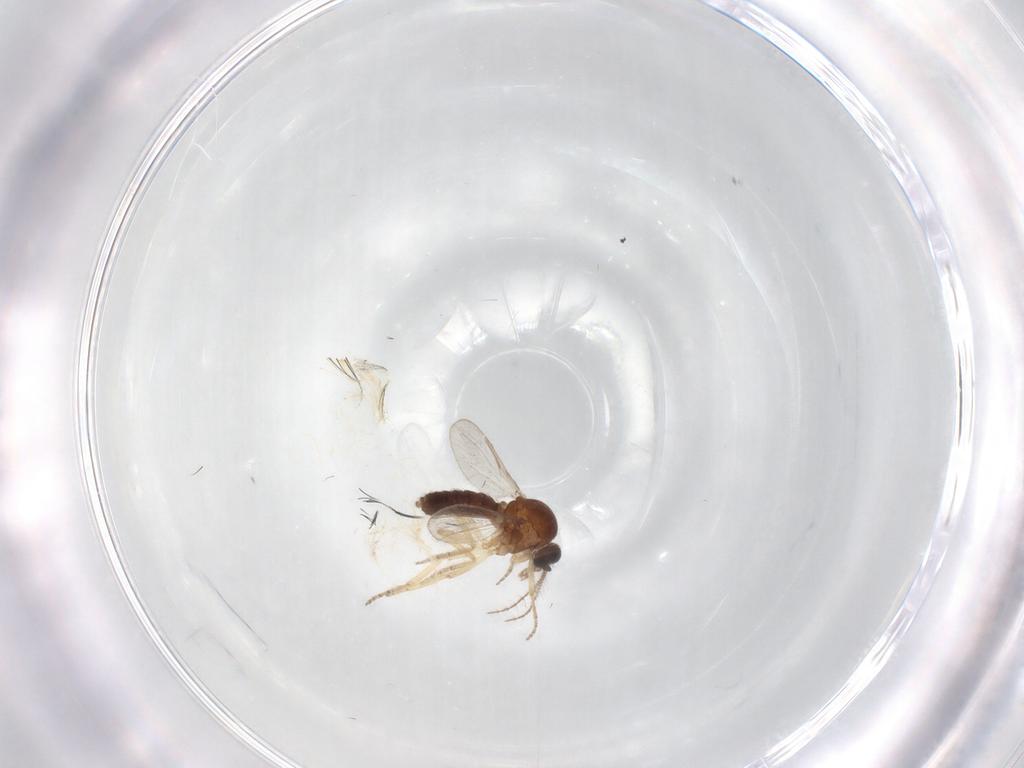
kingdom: Animalia
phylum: Arthropoda
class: Insecta
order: Diptera
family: Ceratopogonidae
